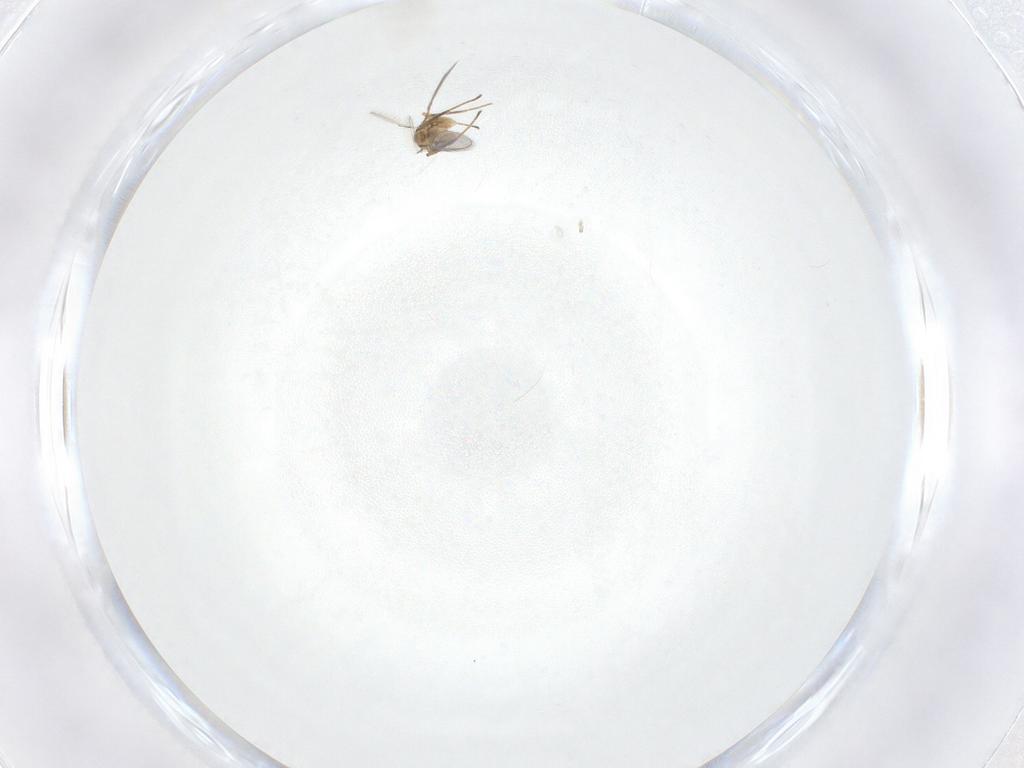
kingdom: Animalia
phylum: Arthropoda
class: Insecta
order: Hymenoptera
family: Mymaridae
